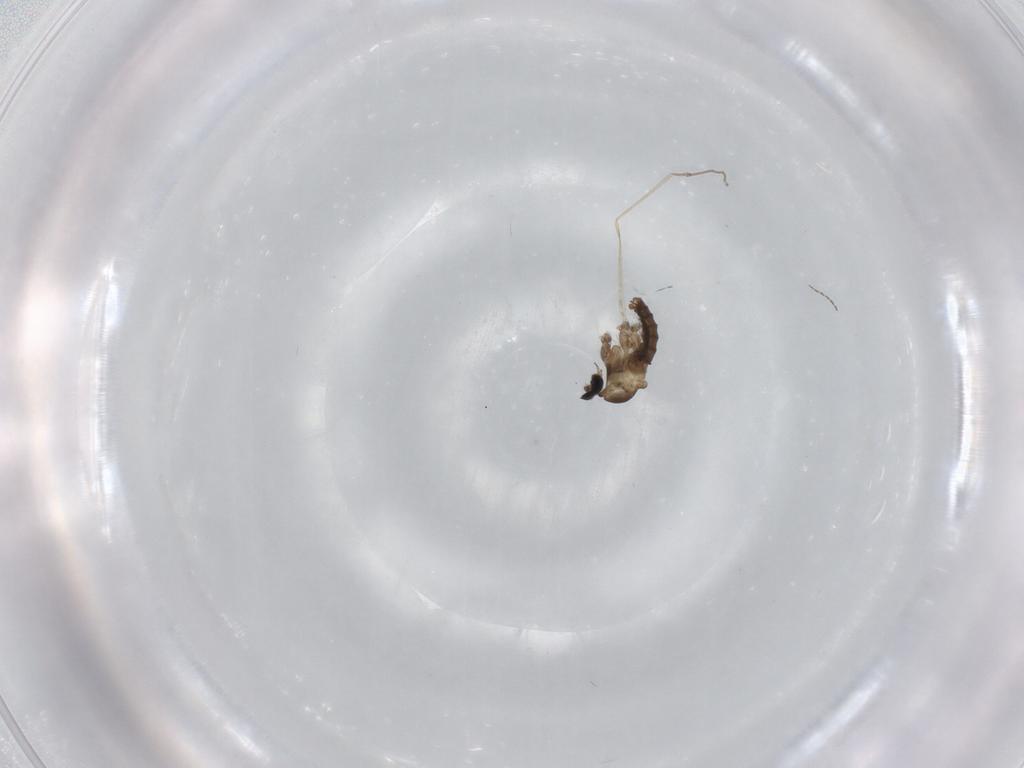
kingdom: Animalia
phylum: Arthropoda
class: Insecta
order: Diptera
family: Cecidomyiidae
